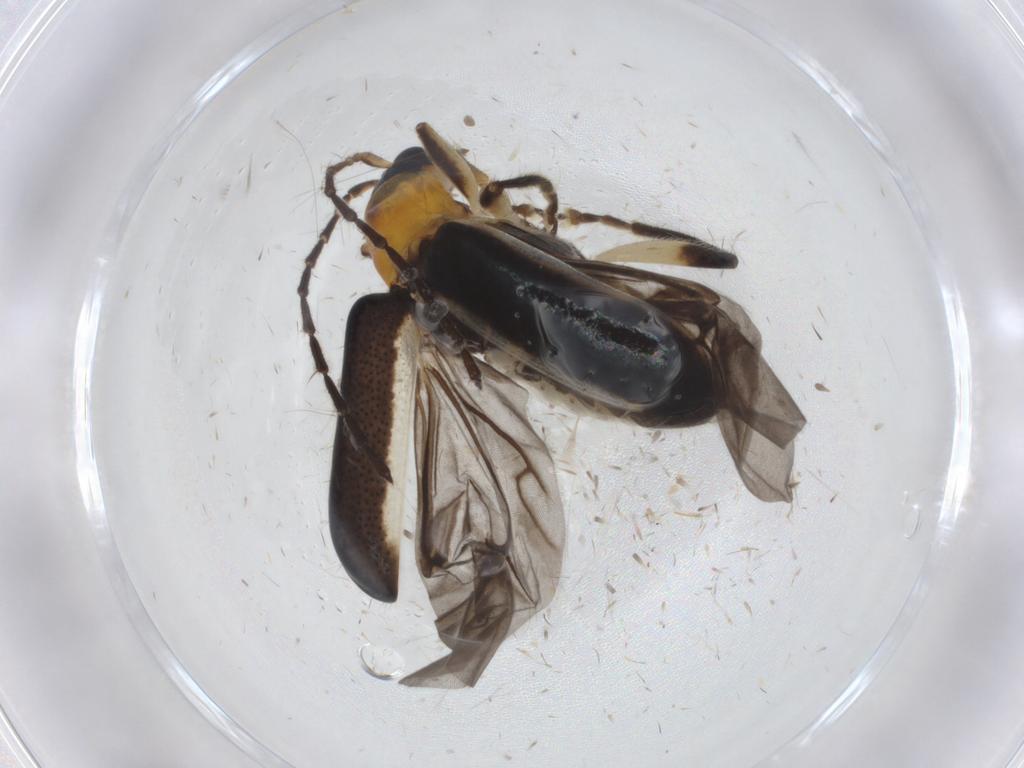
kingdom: Animalia
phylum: Arthropoda
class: Insecta
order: Coleoptera
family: Chrysomelidae
